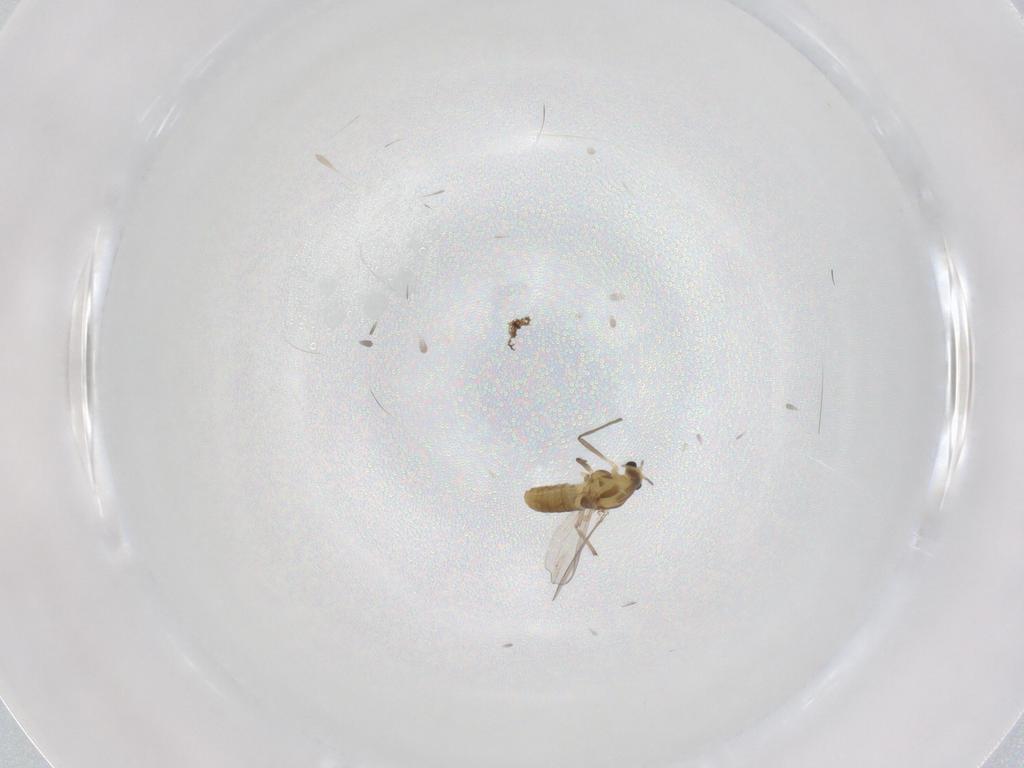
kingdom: Animalia
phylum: Arthropoda
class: Insecta
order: Diptera
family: Chironomidae
